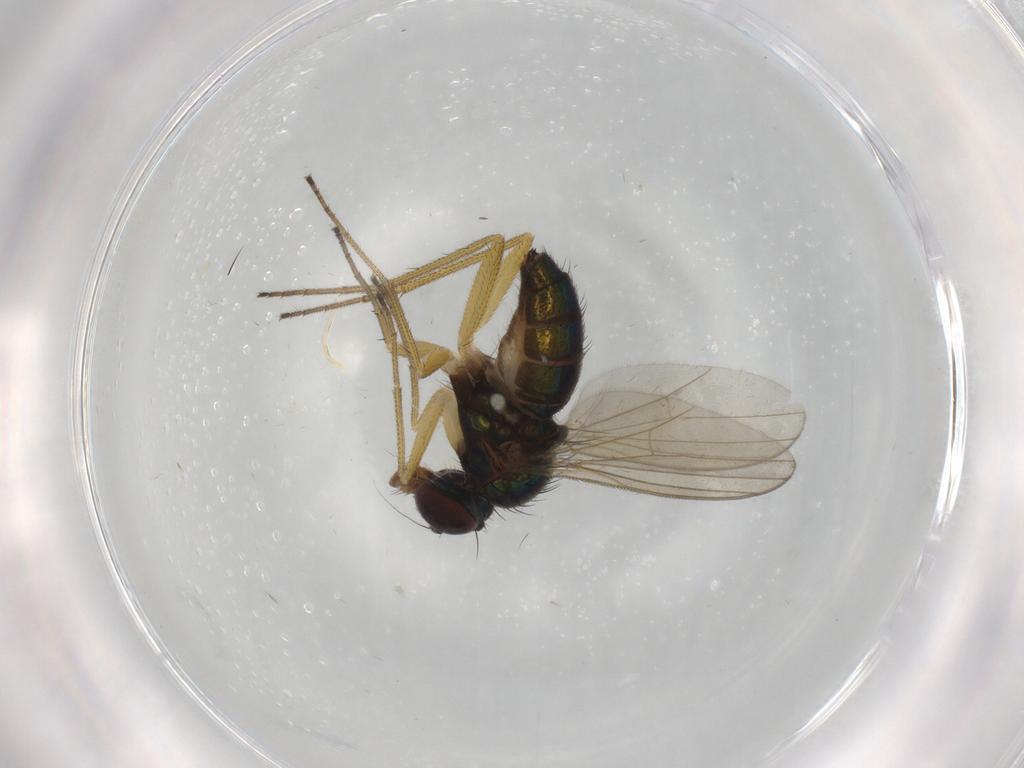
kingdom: Animalia
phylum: Arthropoda
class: Insecta
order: Diptera
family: Dolichopodidae
